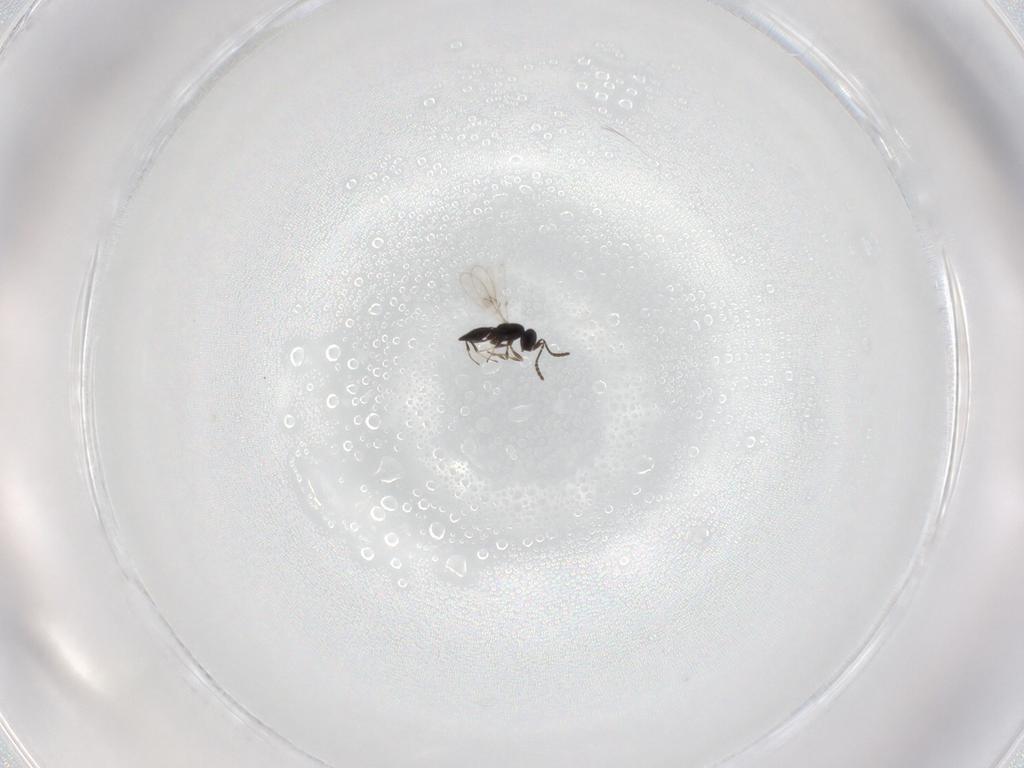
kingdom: Animalia
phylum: Arthropoda
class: Insecta
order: Hymenoptera
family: Scelionidae
